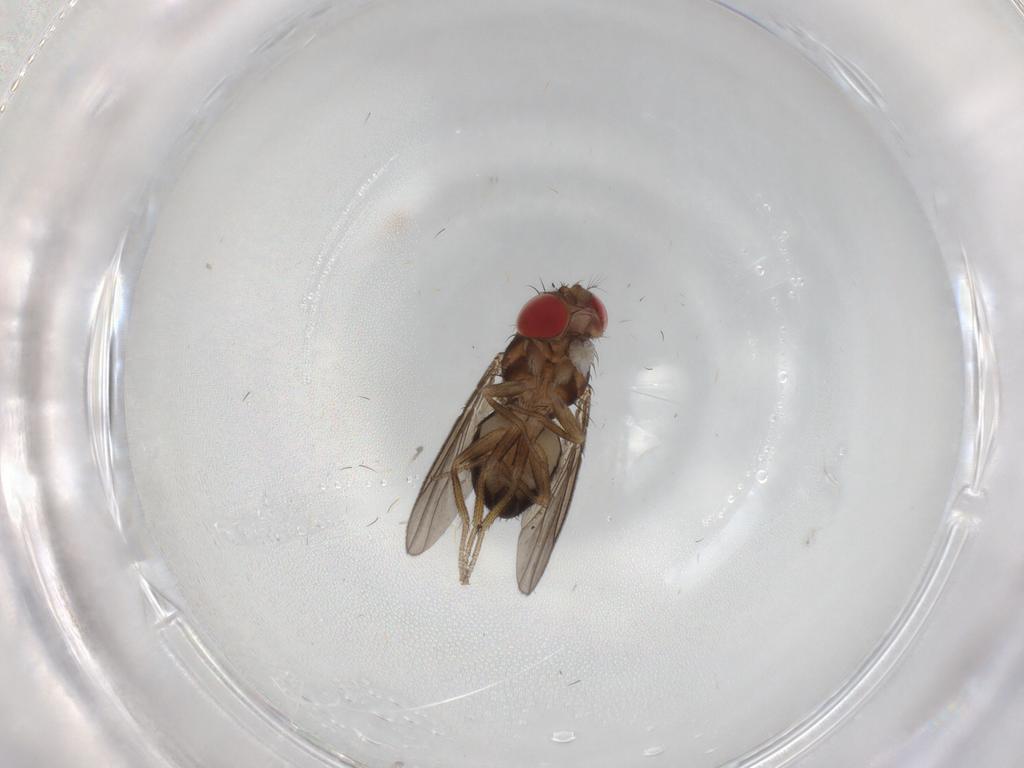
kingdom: Animalia
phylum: Arthropoda
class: Insecta
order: Diptera
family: Drosophilidae
